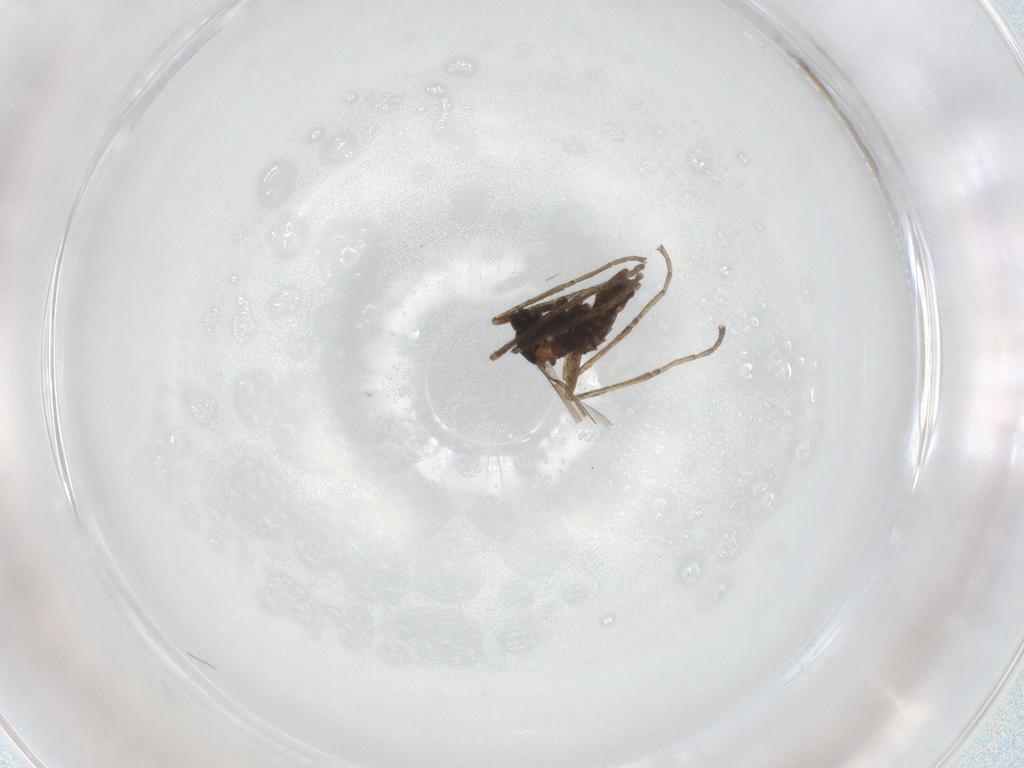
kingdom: Animalia
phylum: Arthropoda
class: Insecta
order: Diptera
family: Cecidomyiidae
